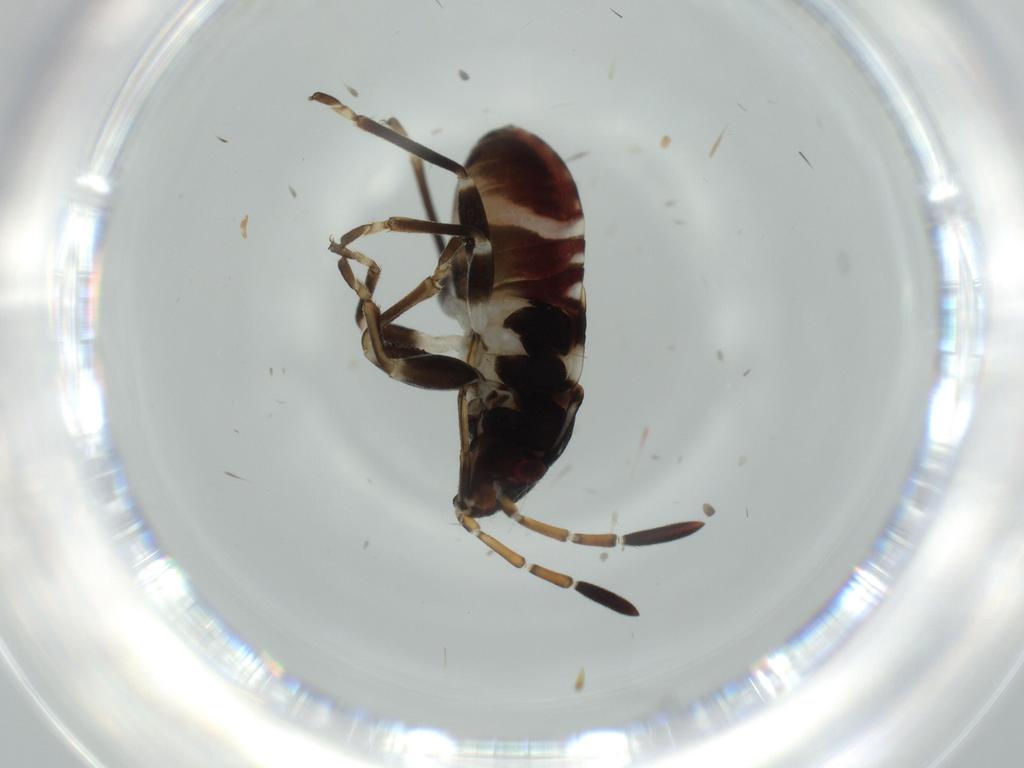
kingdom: Animalia
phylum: Arthropoda
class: Insecta
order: Hemiptera
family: Rhyparochromidae
